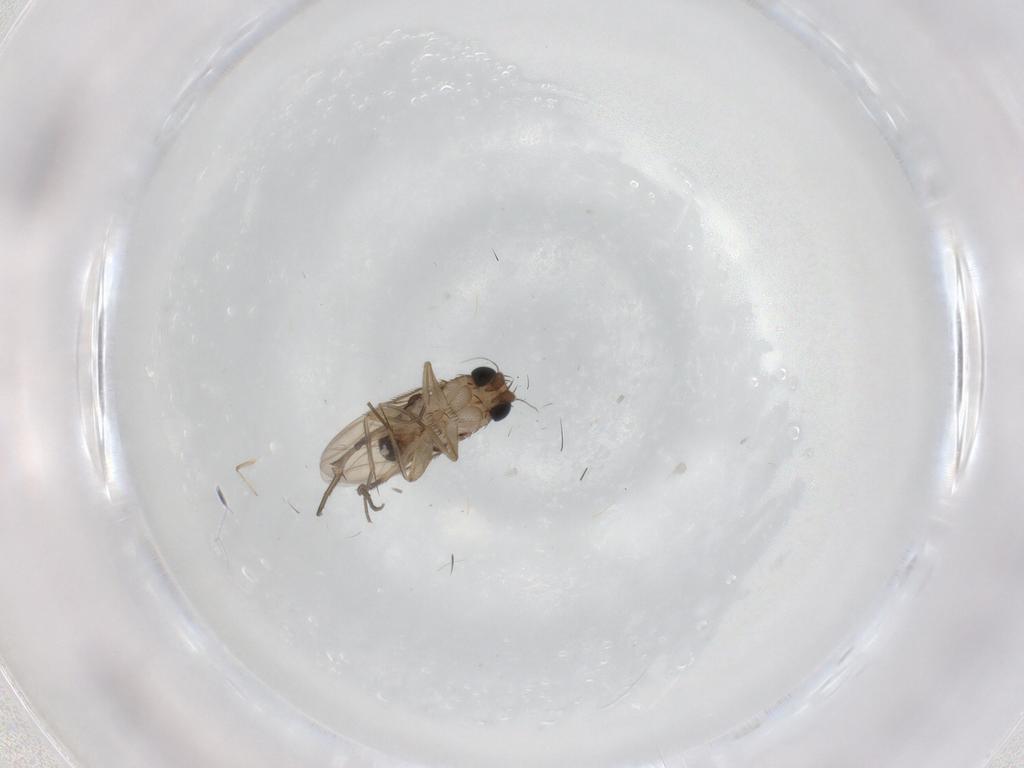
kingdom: Animalia
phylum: Arthropoda
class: Insecta
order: Diptera
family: Phoridae
